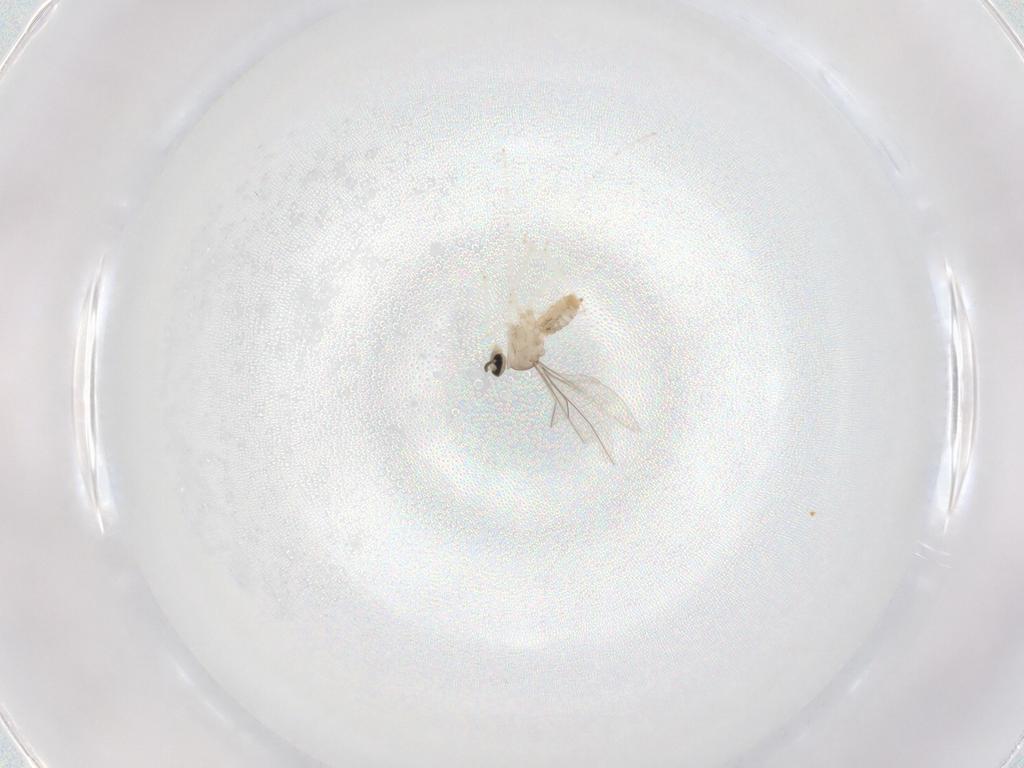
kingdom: Animalia
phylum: Arthropoda
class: Insecta
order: Diptera
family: Cecidomyiidae
